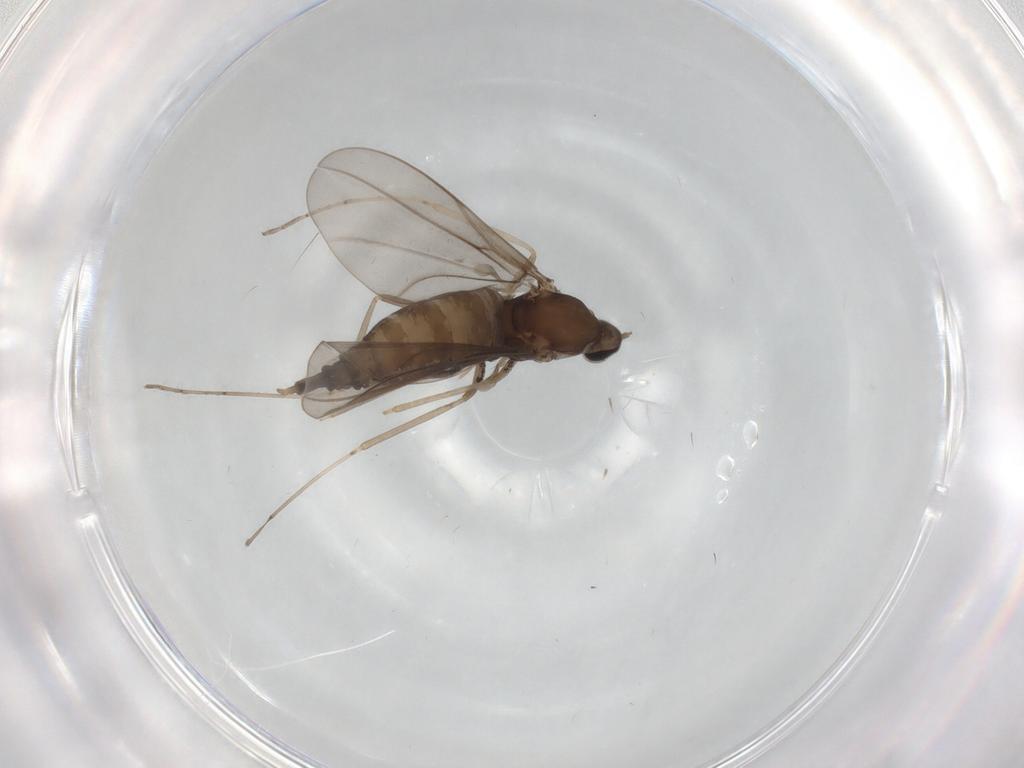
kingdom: Animalia
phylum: Arthropoda
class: Insecta
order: Diptera
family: Cecidomyiidae
